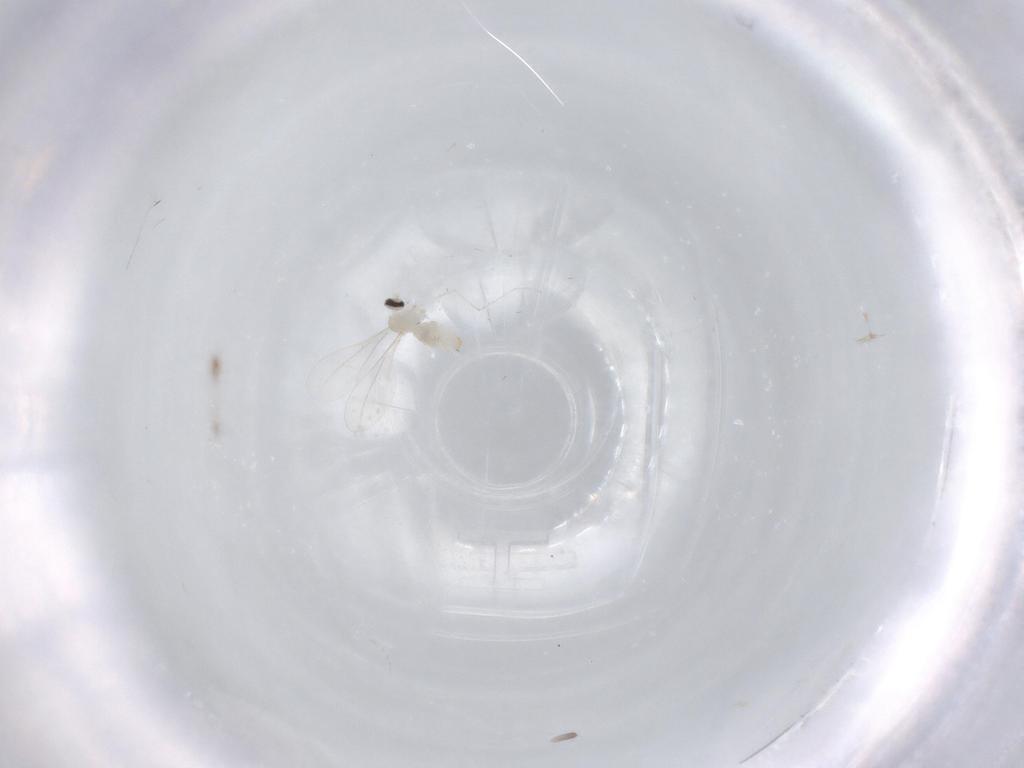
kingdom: Animalia
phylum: Arthropoda
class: Insecta
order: Diptera
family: Cecidomyiidae
